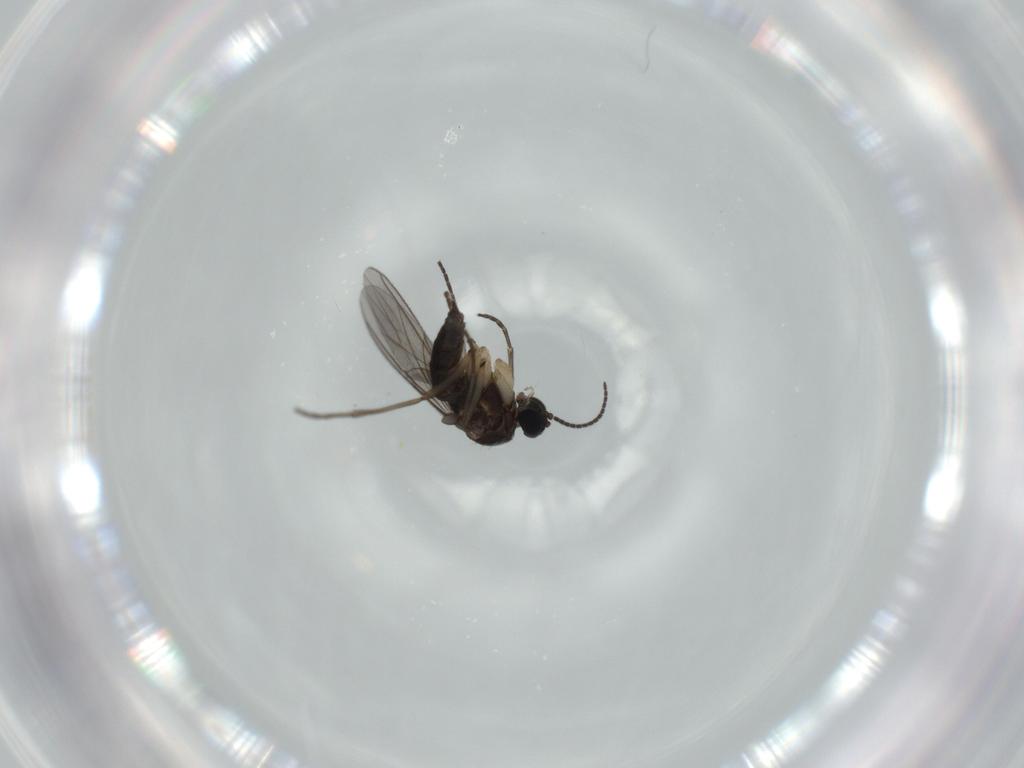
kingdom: Animalia
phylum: Arthropoda
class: Insecta
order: Diptera
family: Sciaridae
